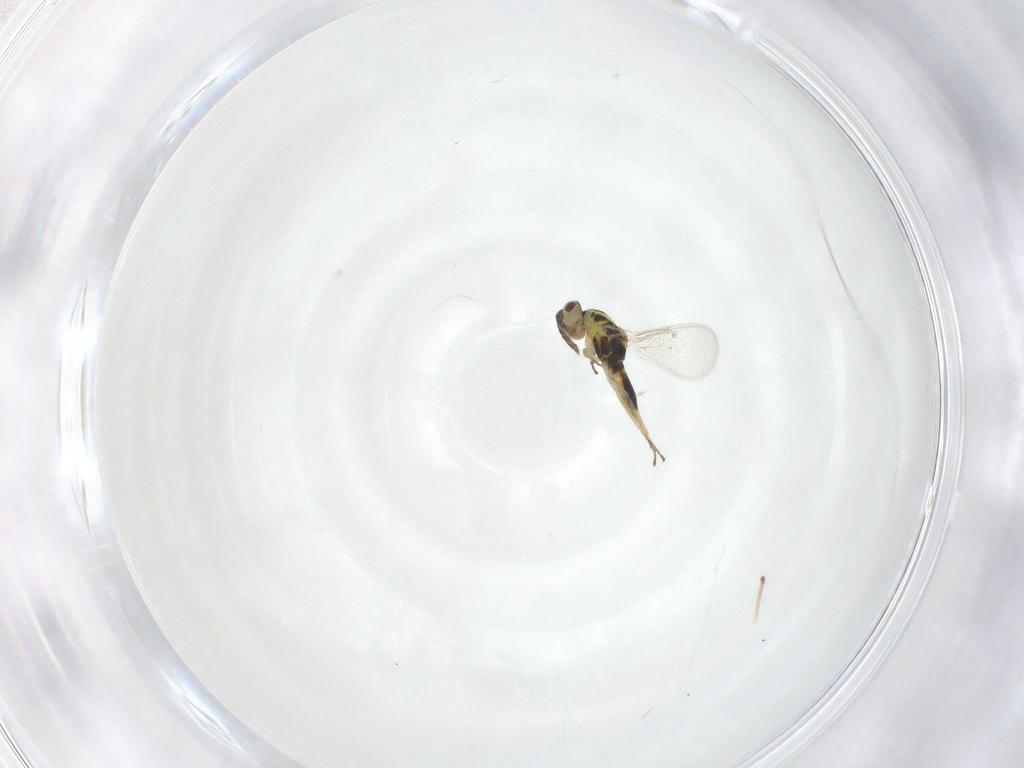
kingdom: Animalia
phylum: Arthropoda
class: Insecta
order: Hymenoptera
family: Eulophidae
